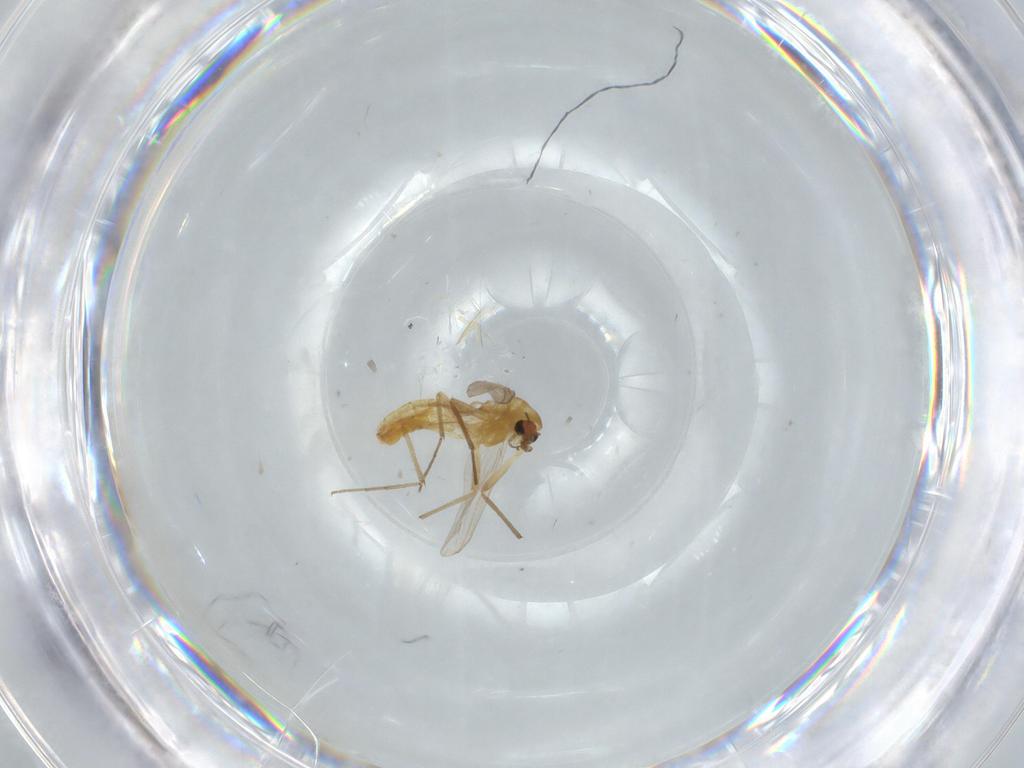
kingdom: Animalia
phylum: Arthropoda
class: Insecta
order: Diptera
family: Chironomidae
